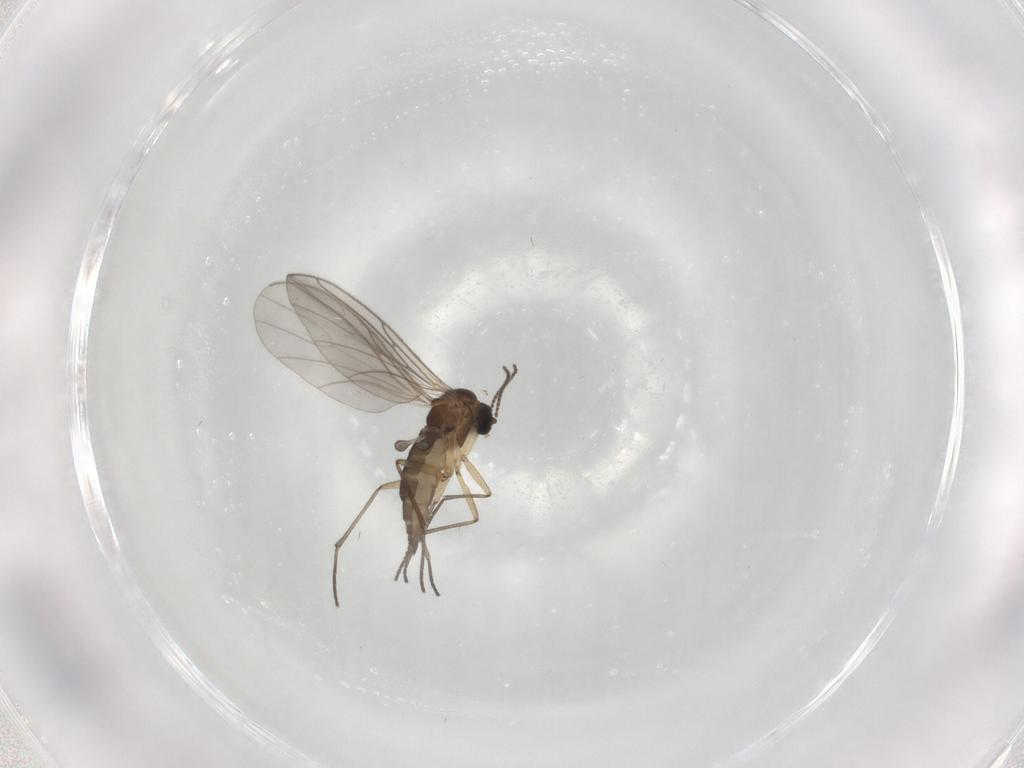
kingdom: Animalia
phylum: Arthropoda
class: Insecta
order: Diptera
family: Sciaridae
